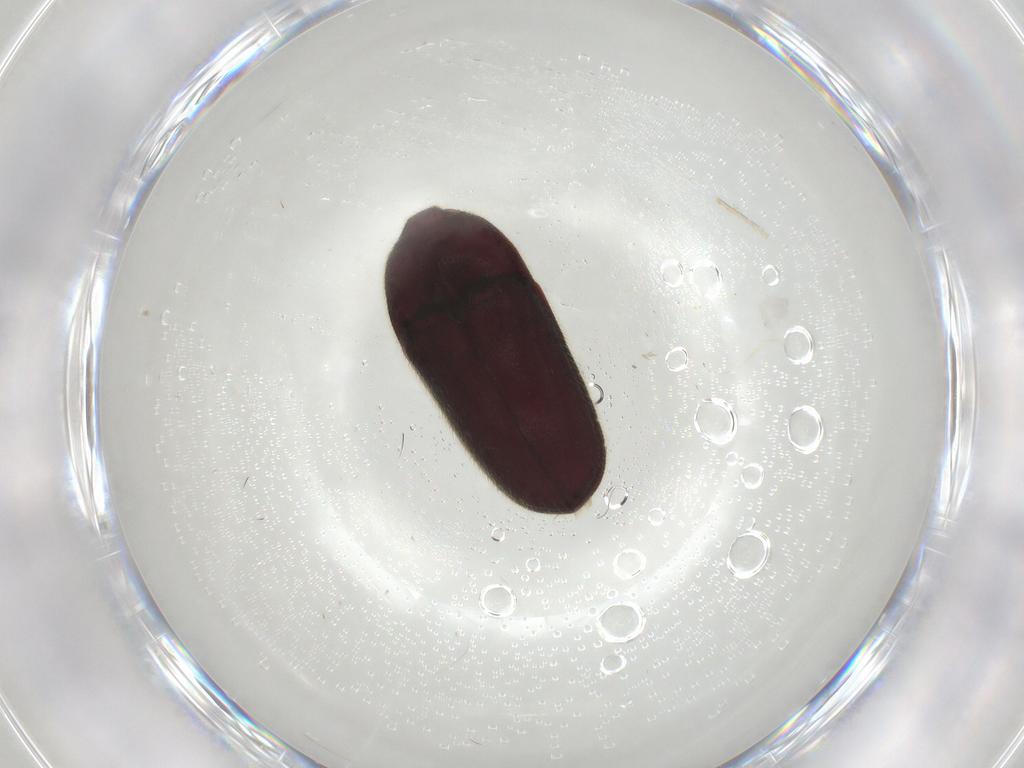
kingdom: Animalia
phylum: Arthropoda
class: Insecta
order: Coleoptera
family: Throscidae
